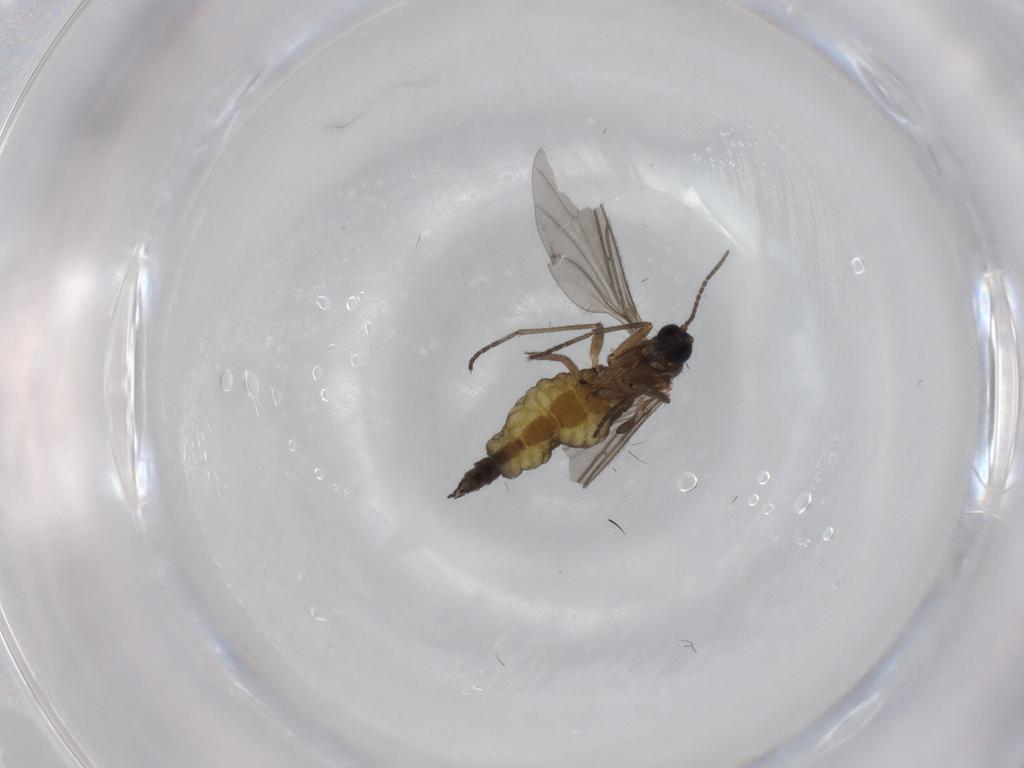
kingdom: Animalia
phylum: Arthropoda
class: Insecta
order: Diptera
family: Sciaridae
